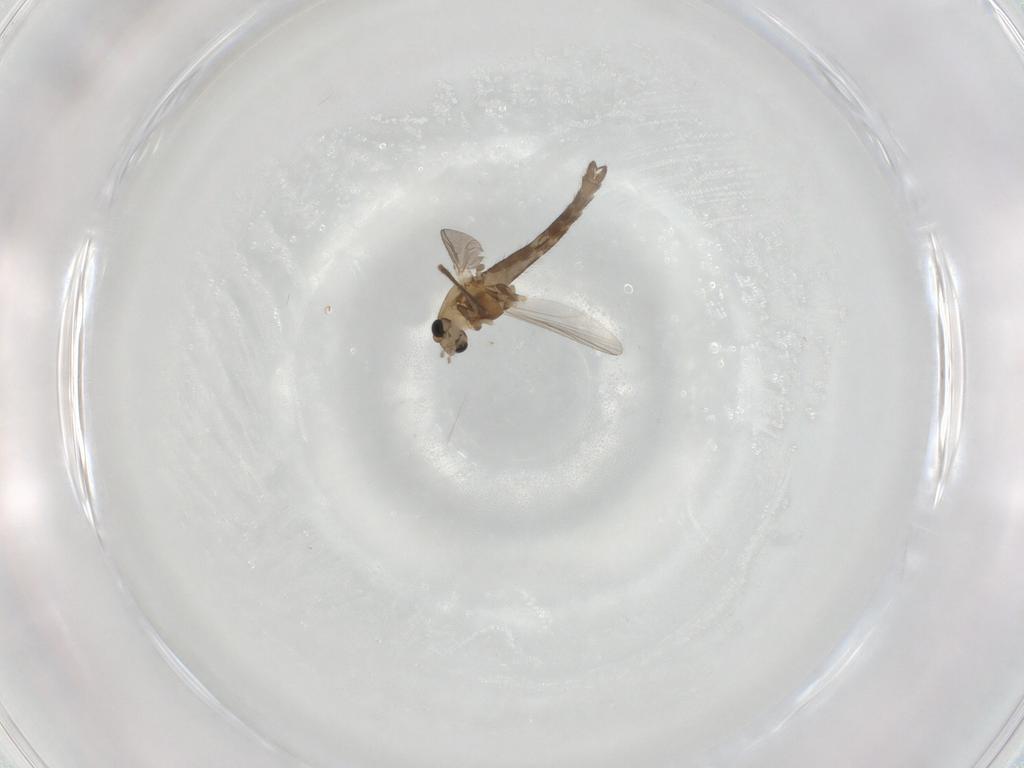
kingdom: Animalia
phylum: Arthropoda
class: Insecta
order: Diptera
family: Chironomidae
